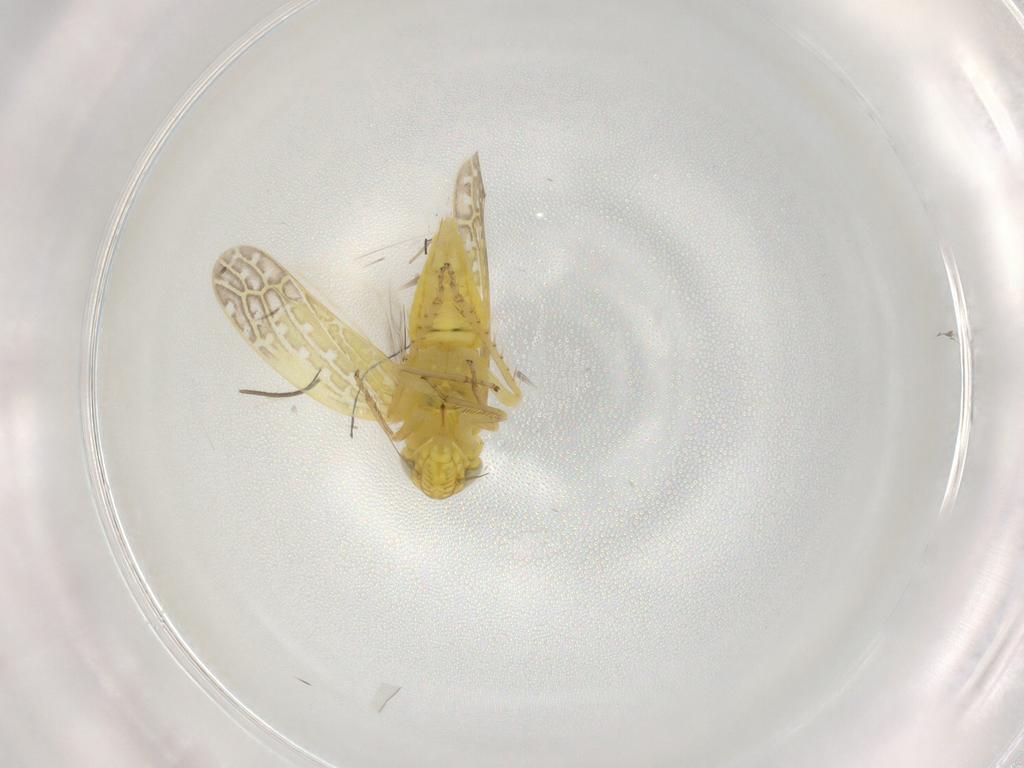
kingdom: Animalia
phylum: Arthropoda
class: Insecta
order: Hemiptera
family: Cicadellidae
